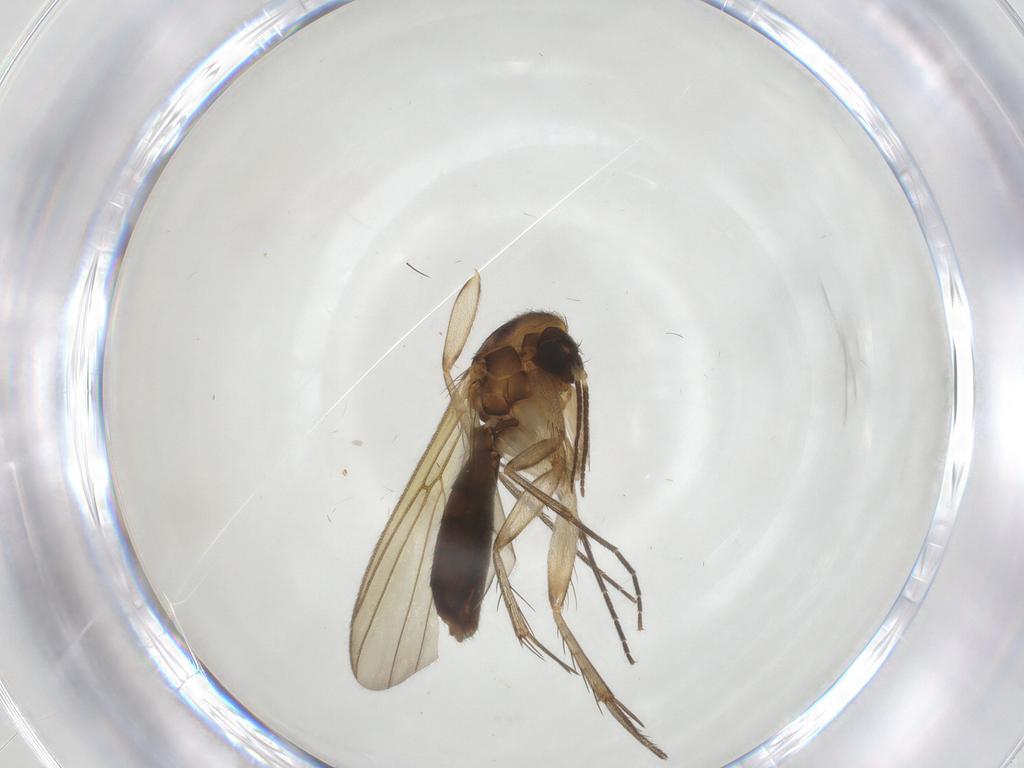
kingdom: Animalia
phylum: Arthropoda
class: Insecta
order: Diptera
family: Mycetophilidae
